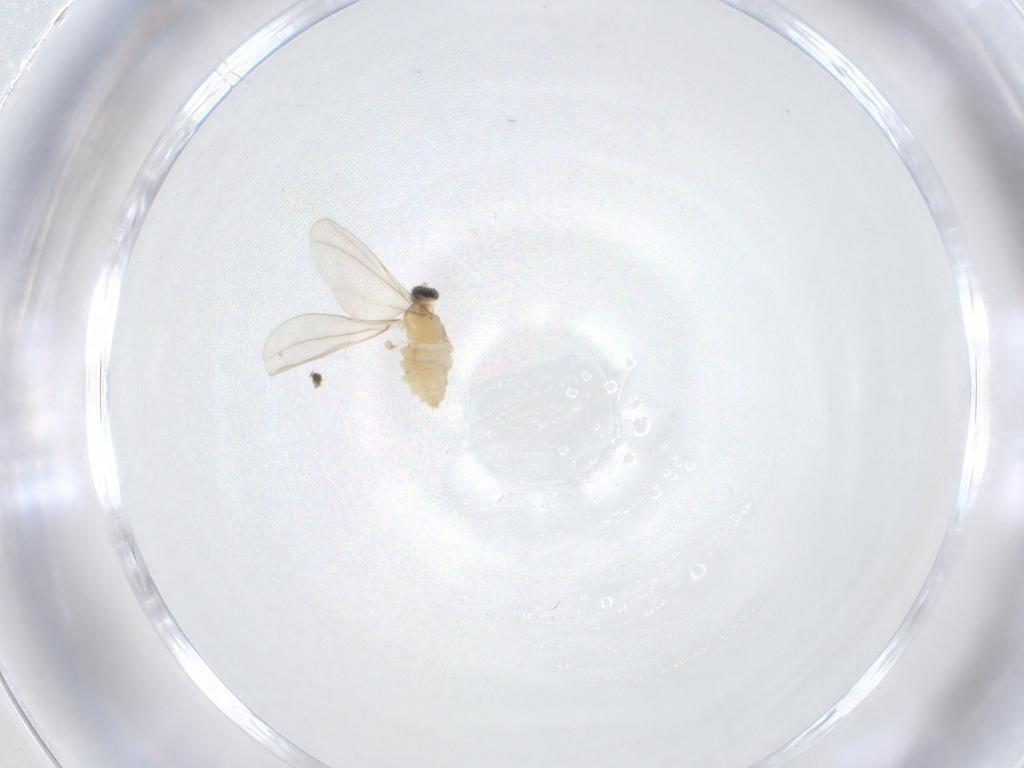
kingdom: Animalia
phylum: Arthropoda
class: Insecta
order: Diptera
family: Cecidomyiidae
